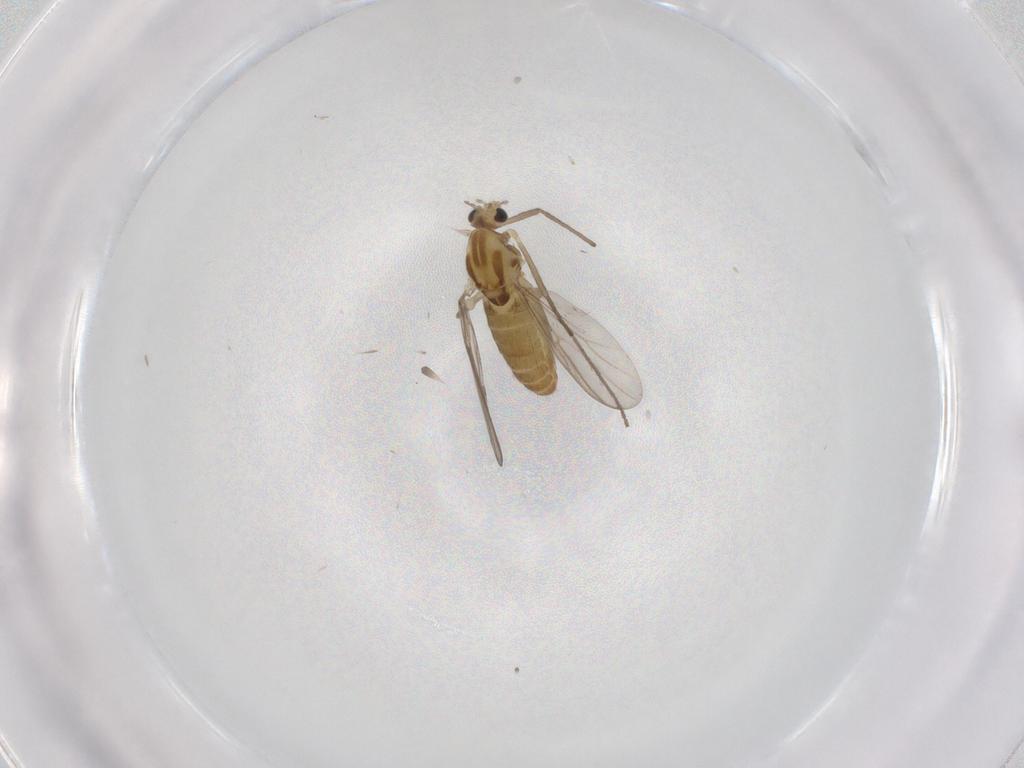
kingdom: Animalia
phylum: Arthropoda
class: Insecta
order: Diptera
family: Chironomidae
